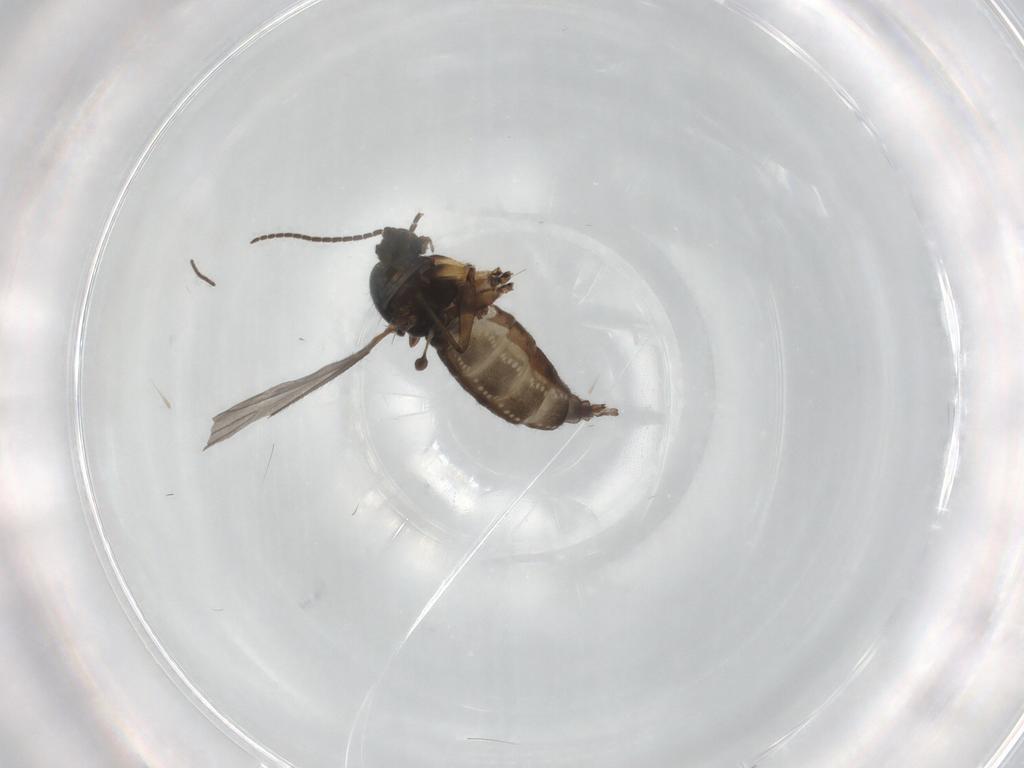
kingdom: Animalia
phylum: Arthropoda
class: Insecta
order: Diptera
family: Sciaridae
